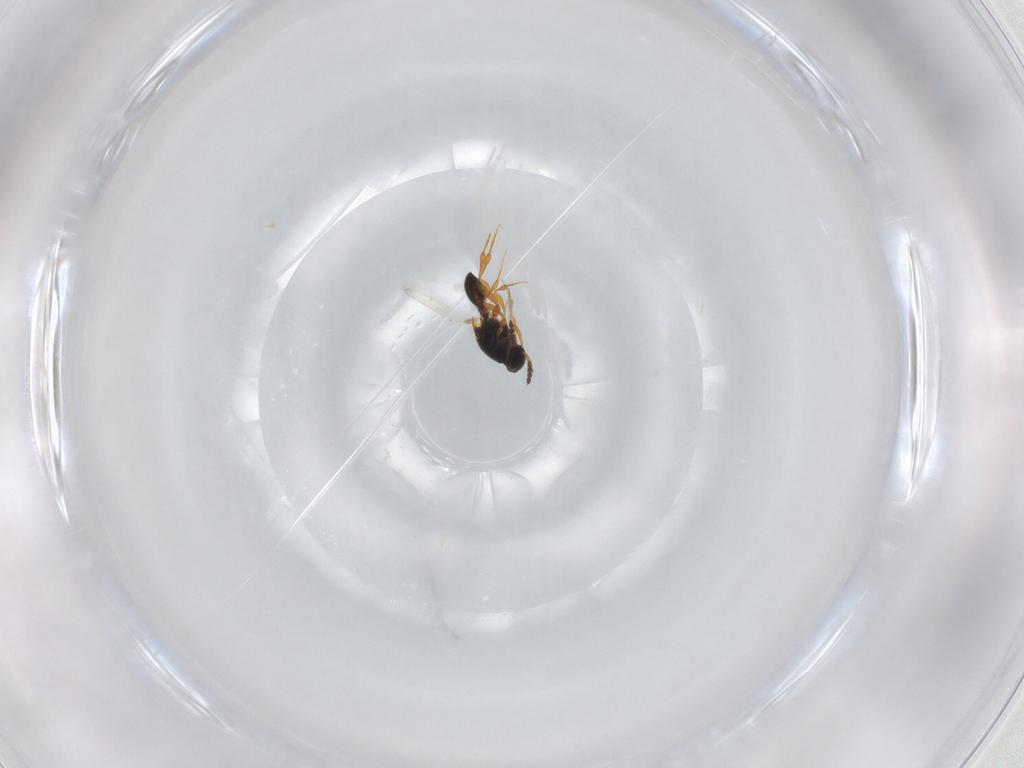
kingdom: Animalia
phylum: Arthropoda
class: Insecta
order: Hymenoptera
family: Platygastridae
